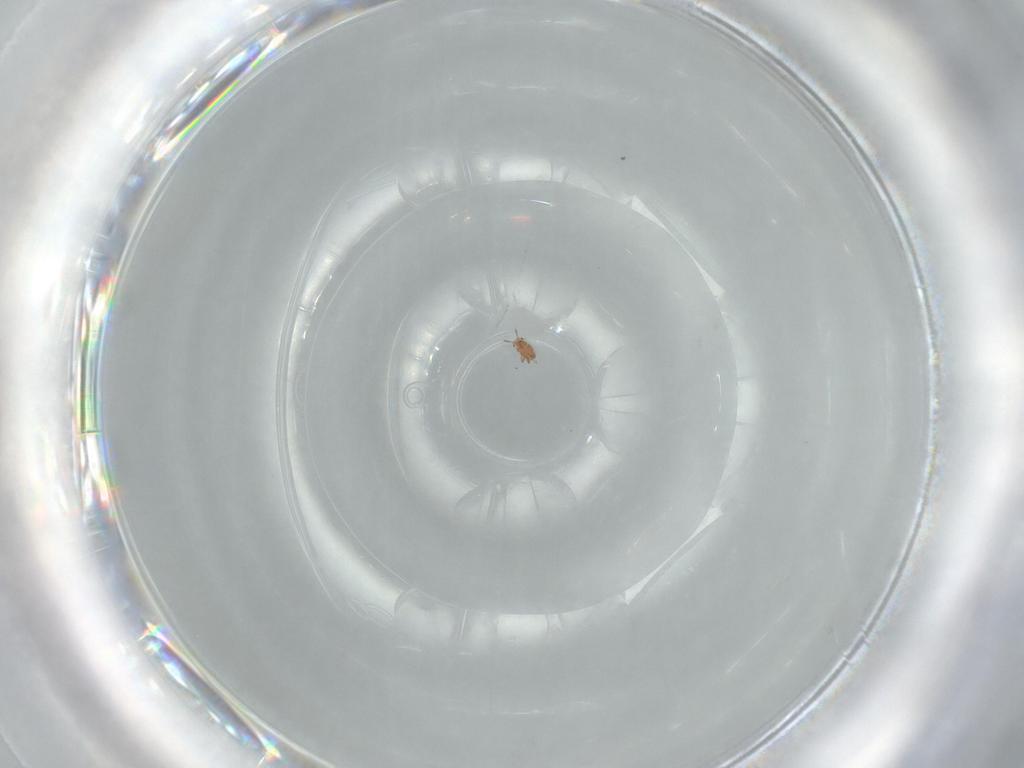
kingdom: Animalia
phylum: Arthropoda
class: Insecta
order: Hemiptera
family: Phylloxeridae
